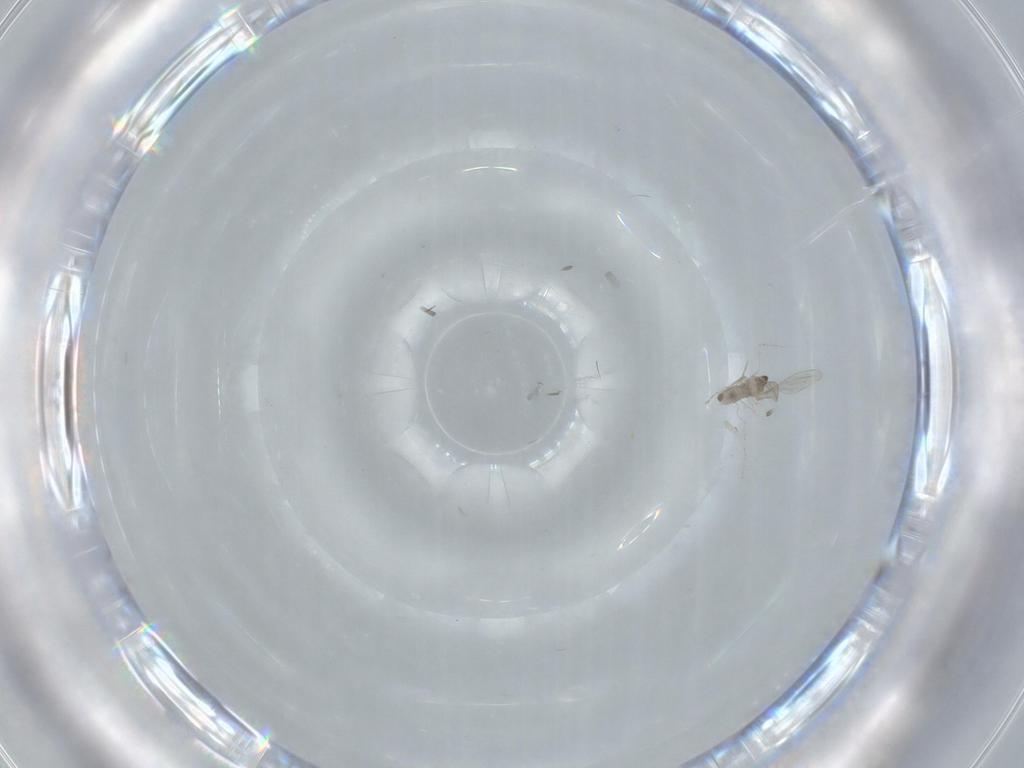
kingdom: Animalia
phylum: Arthropoda
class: Insecta
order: Diptera
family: Cecidomyiidae
